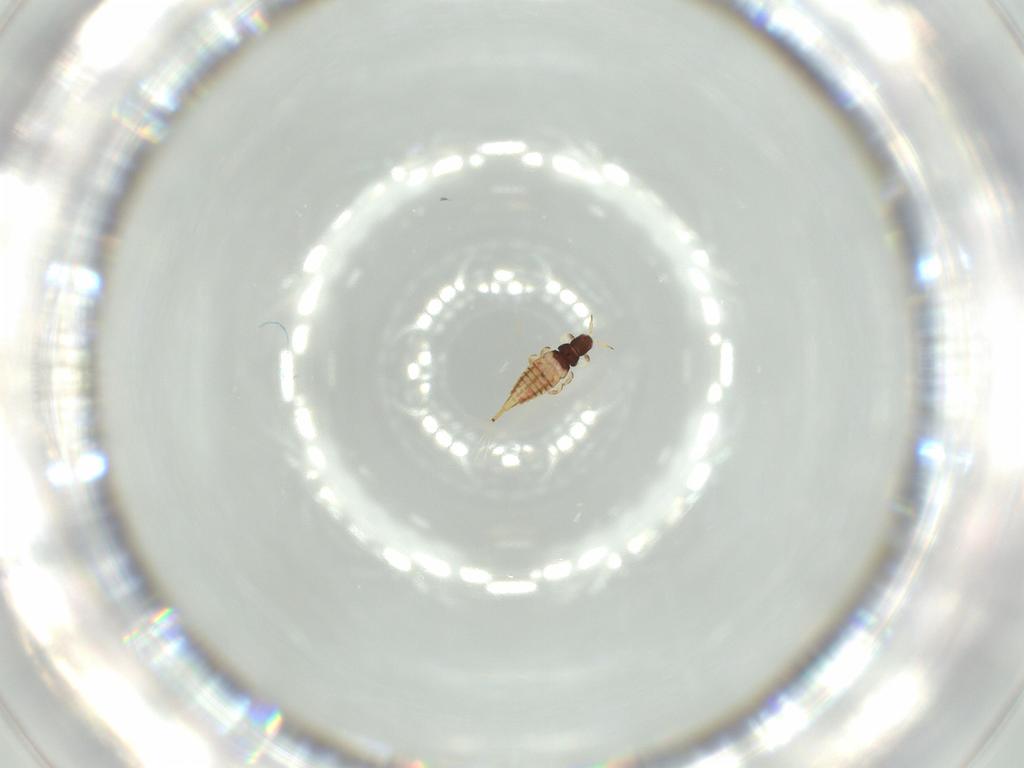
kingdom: Animalia
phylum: Arthropoda
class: Insecta
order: Thysanoptera
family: Phlaeothripidae
